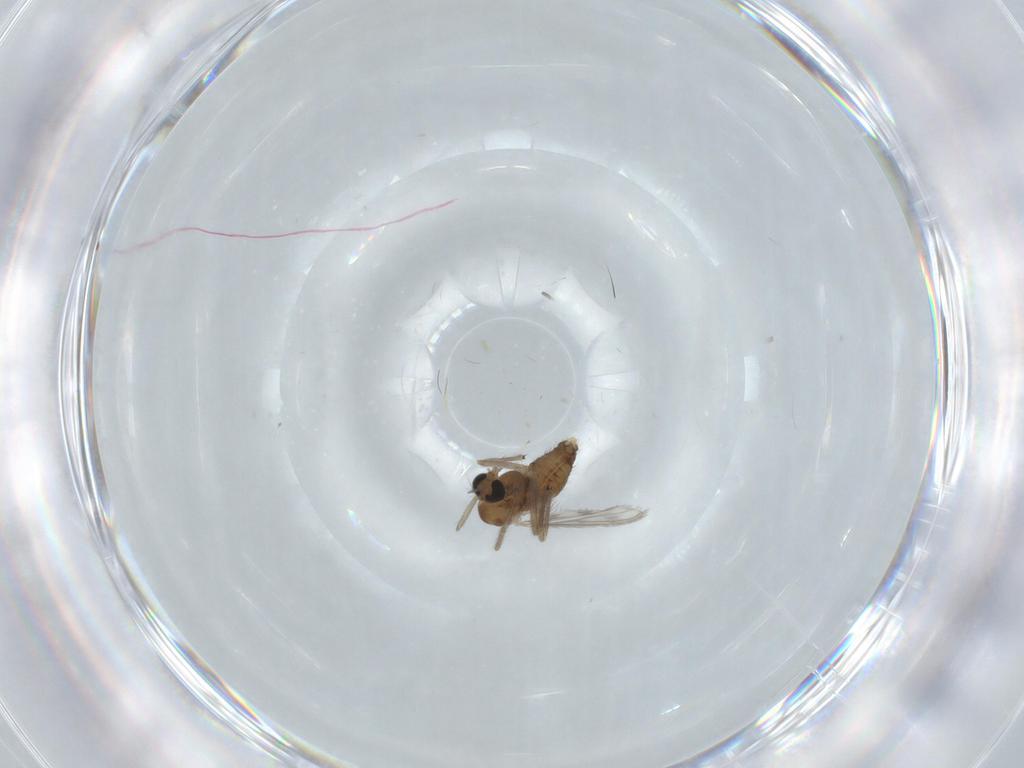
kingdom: Animalia
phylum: Arthropoda
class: Insecta
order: Diptera
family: Chironomidae
